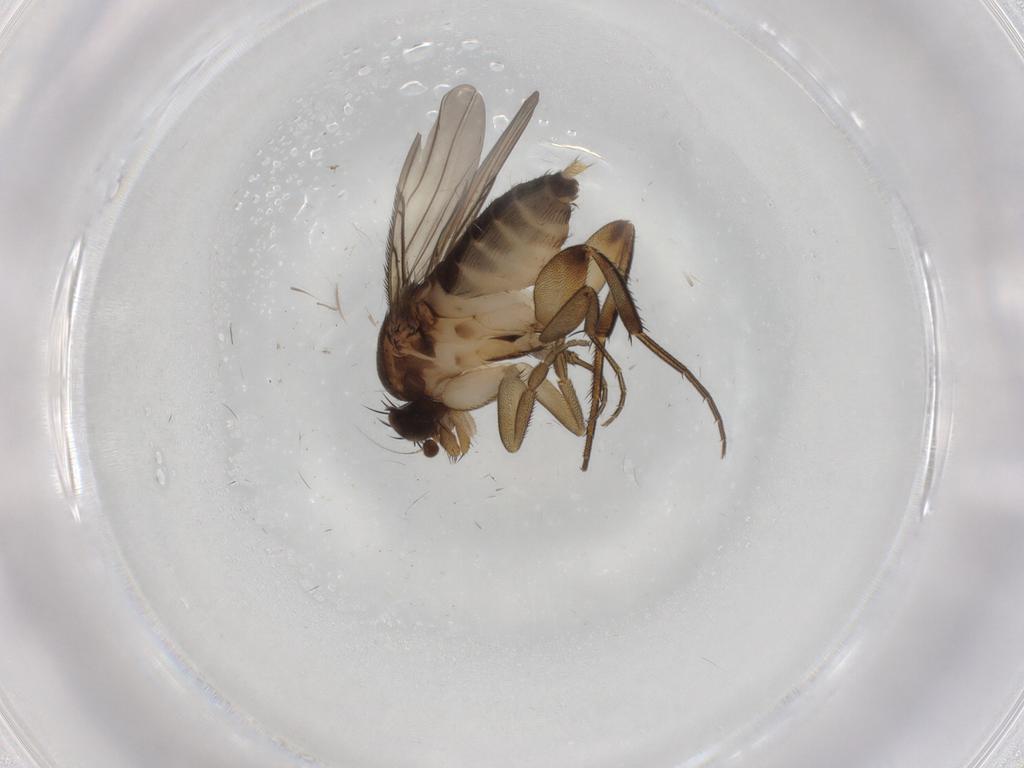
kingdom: Animalia
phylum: Arthropoda
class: Insecta
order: Diptera
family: Phoridae
